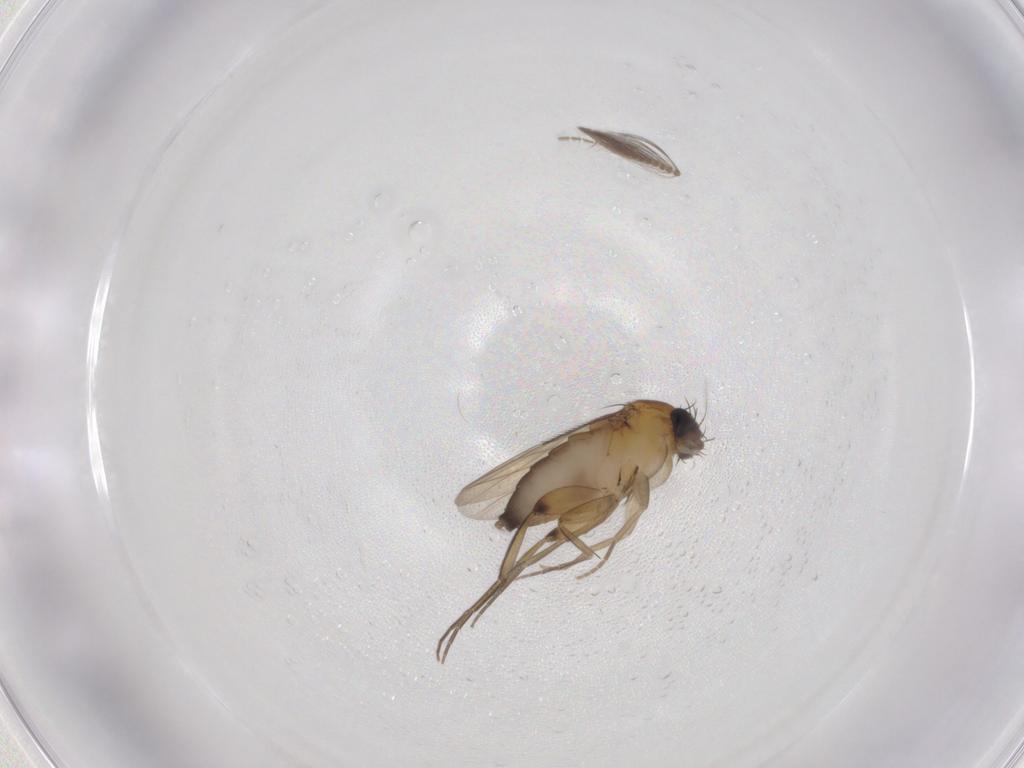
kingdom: Animalia
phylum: Arthropoda
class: Insecta
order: Diptera
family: Phoridae
